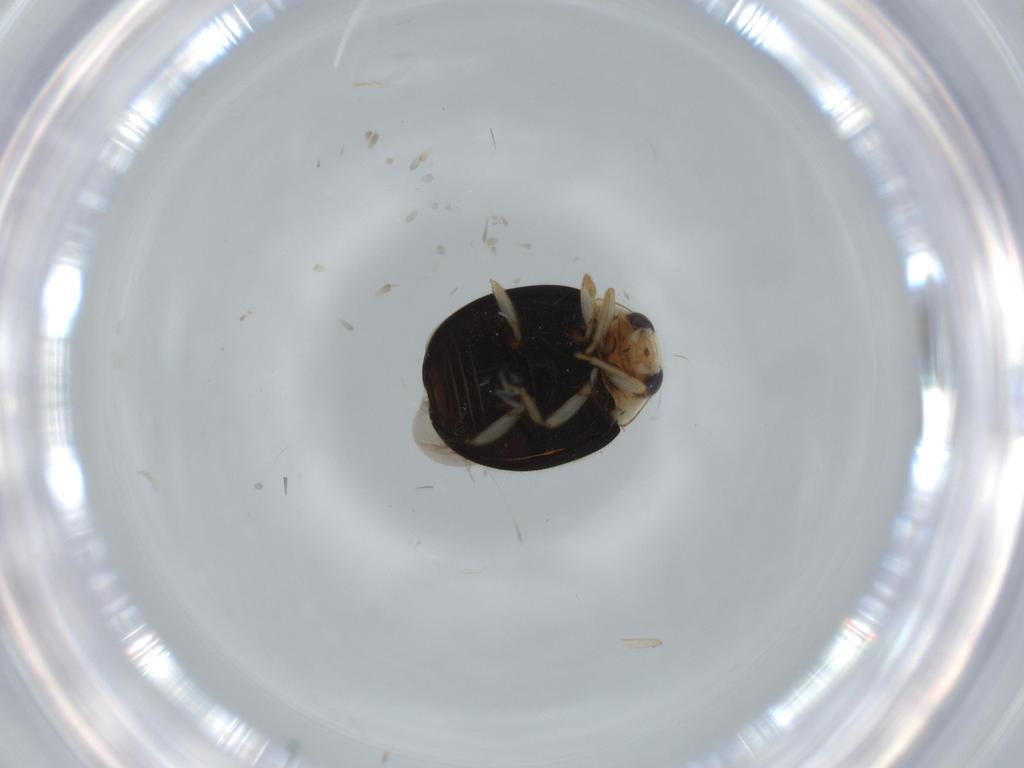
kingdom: Animalia
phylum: Arthropoda
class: Insecta
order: Coleoptera
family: Coccinellidae
